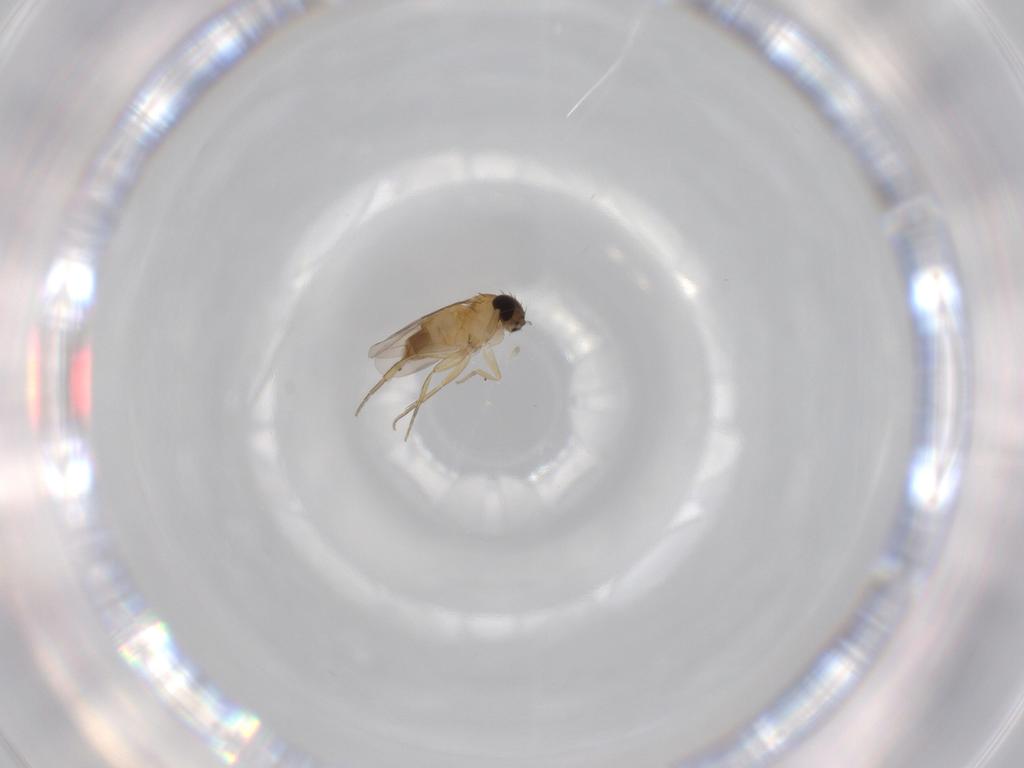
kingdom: Animalia
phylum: Arthropoda
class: Insecta
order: Diptera
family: Phoridae
